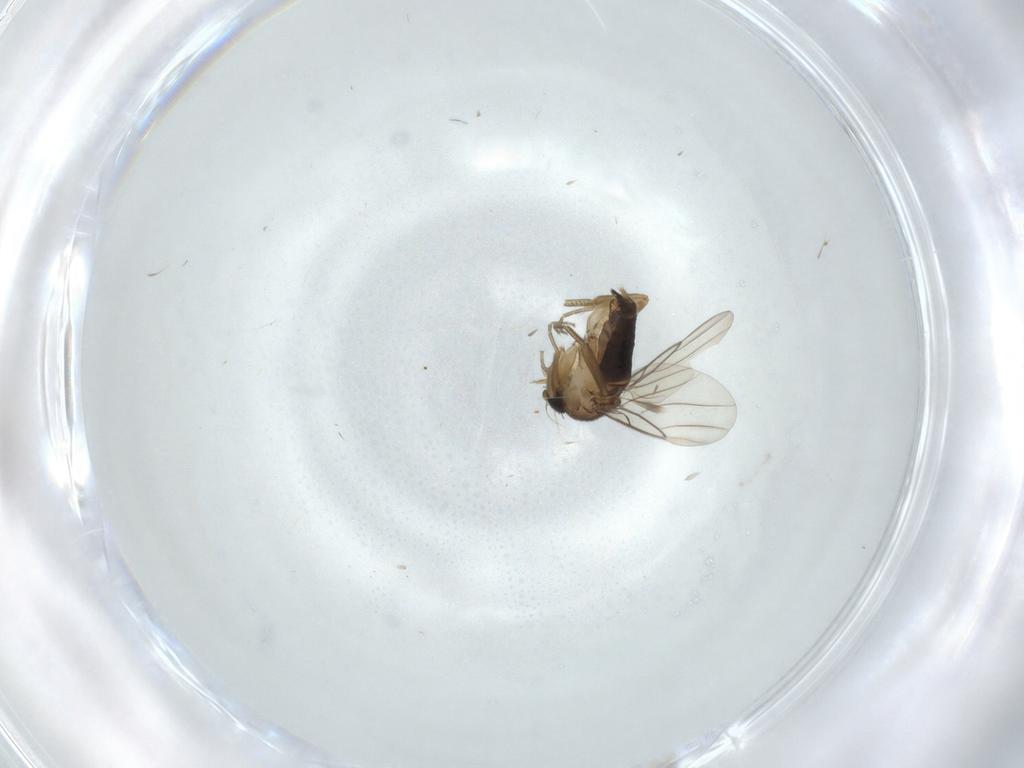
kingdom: Animalia
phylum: Arthropoda
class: Insecta
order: Diptera
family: Phoridae
